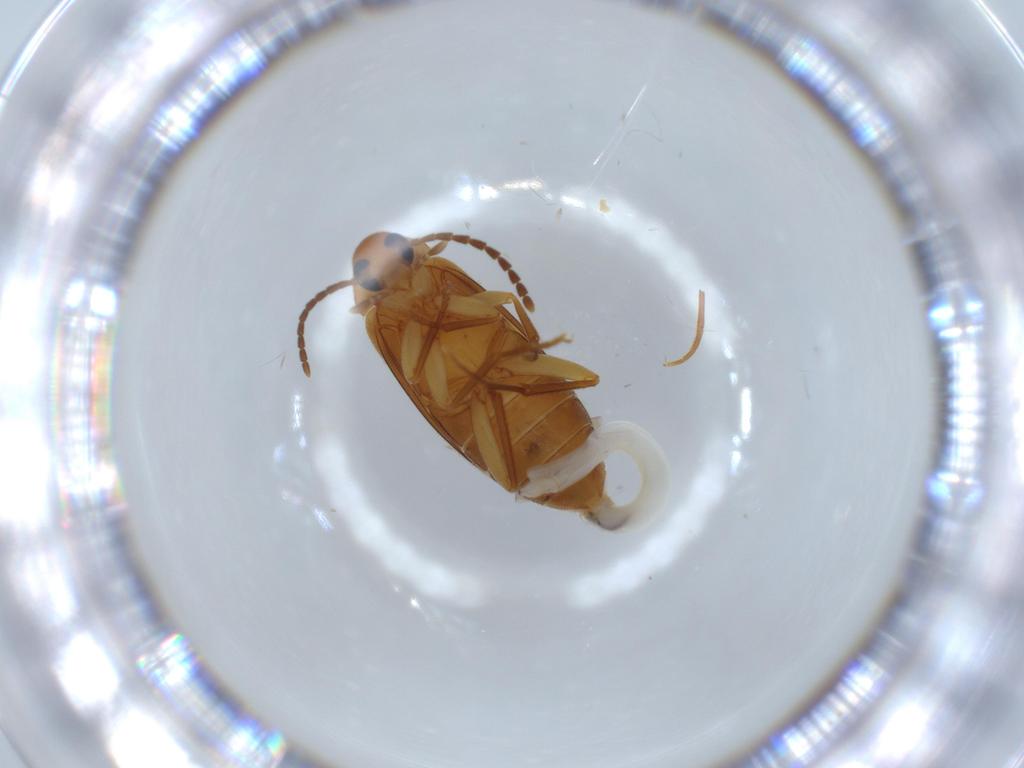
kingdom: Animalia
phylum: Arthropoda
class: Insecta
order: Coleoptera
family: Scraptiidae
